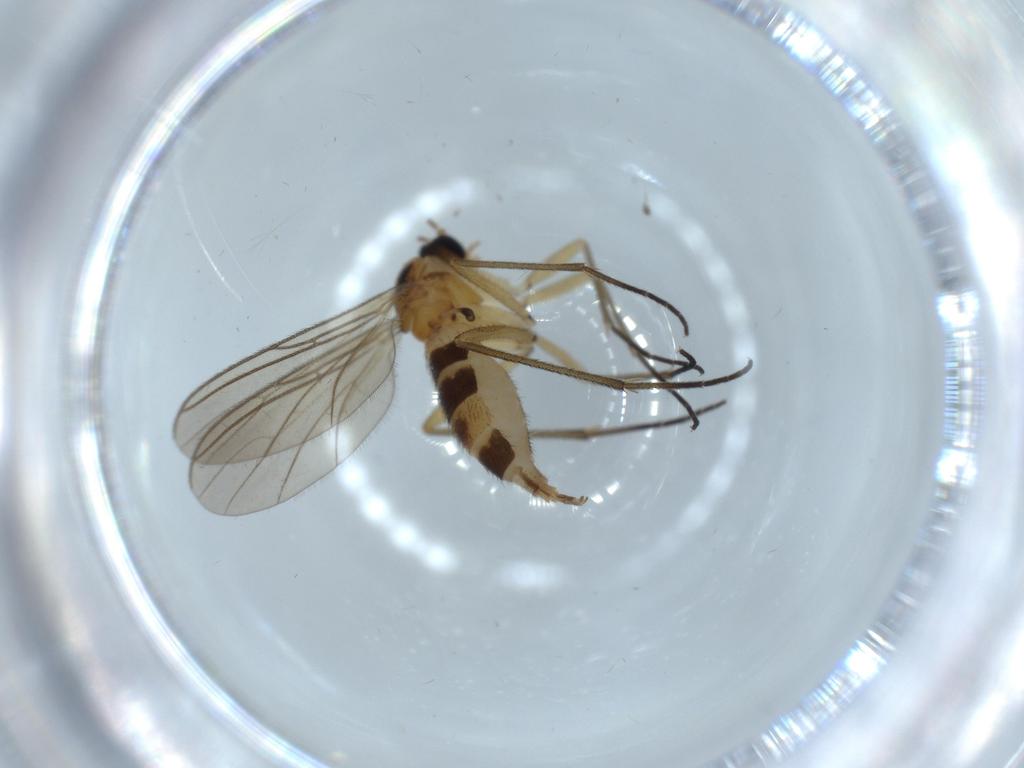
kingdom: Animalia
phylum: Arthropoda
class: Insecta
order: Diptera
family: Sciaridae
